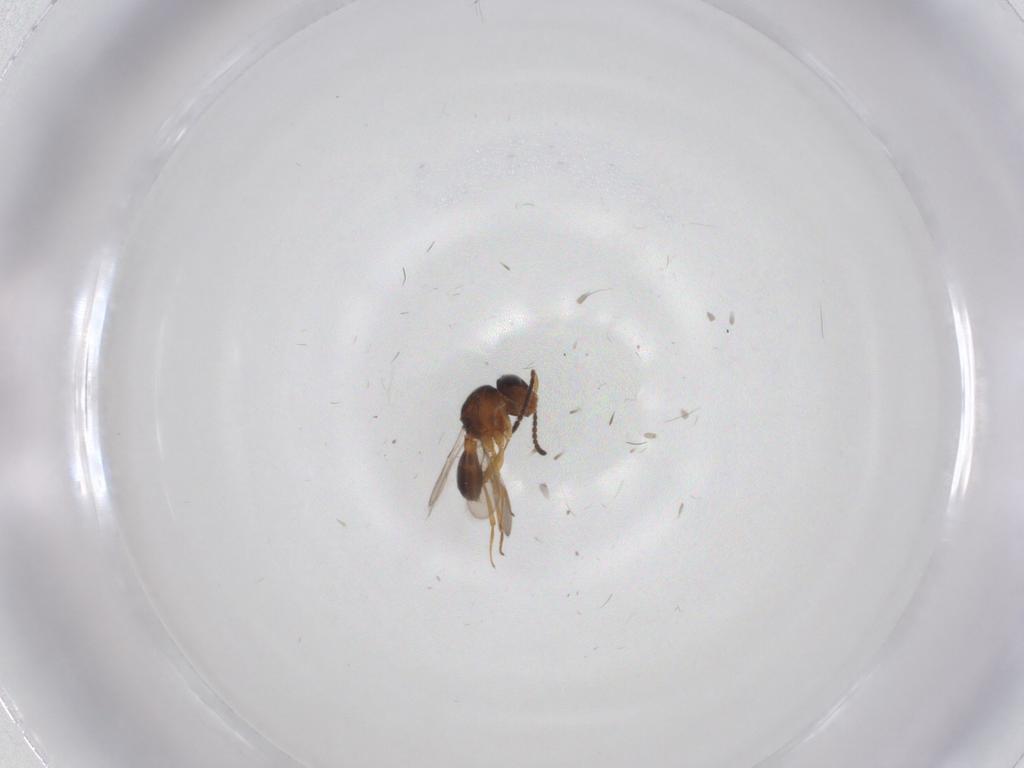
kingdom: Animalia
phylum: Arthropoda
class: Insecta
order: Hymenoptera
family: Scelionidae
